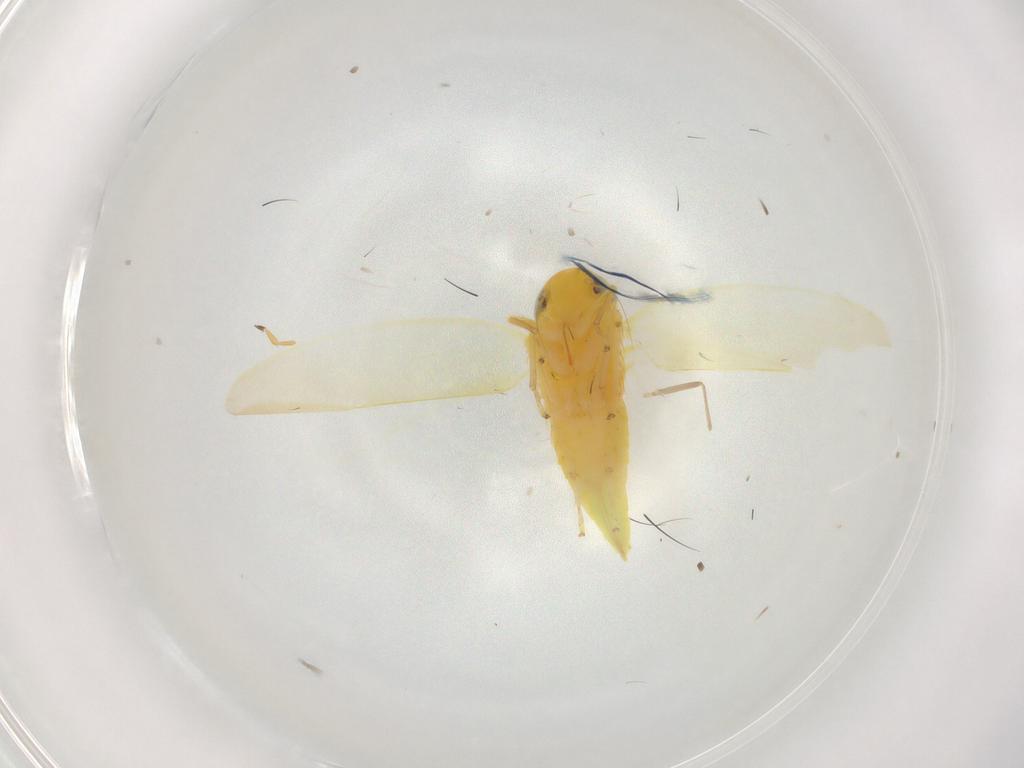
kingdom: Animalia
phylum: Arthropoda
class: Insecta
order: Hemiptera
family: Cicadellidae
